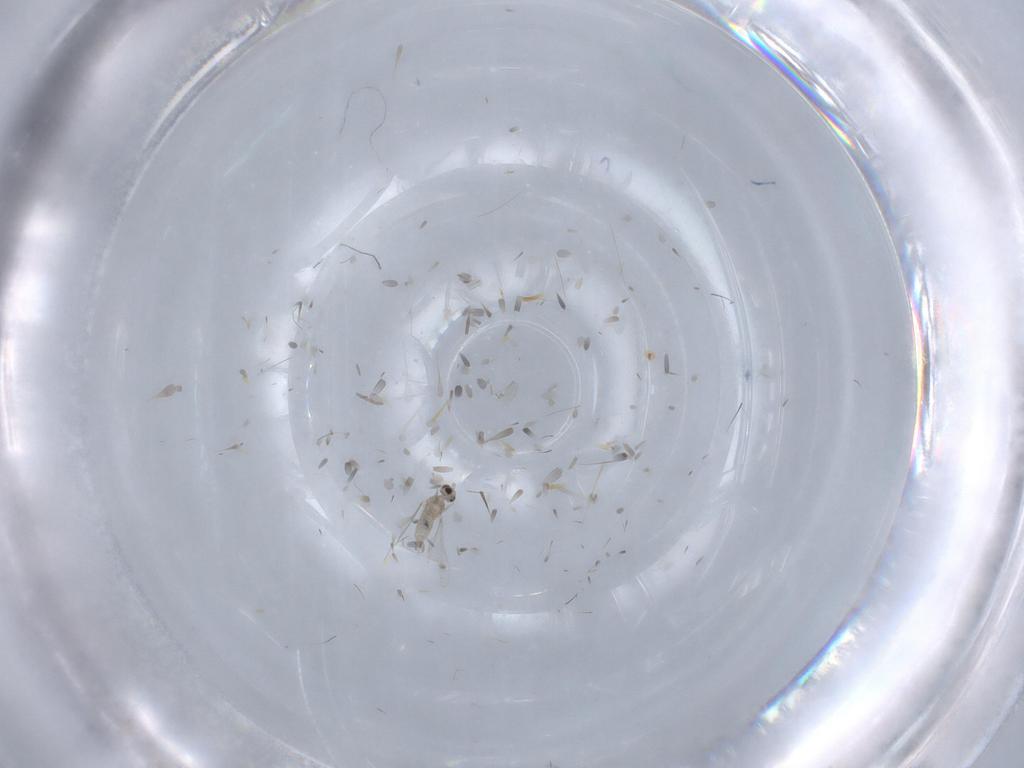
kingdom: Animalia
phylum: Arthropoda
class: Insecta
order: Diptera
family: Cecidomyiidae
